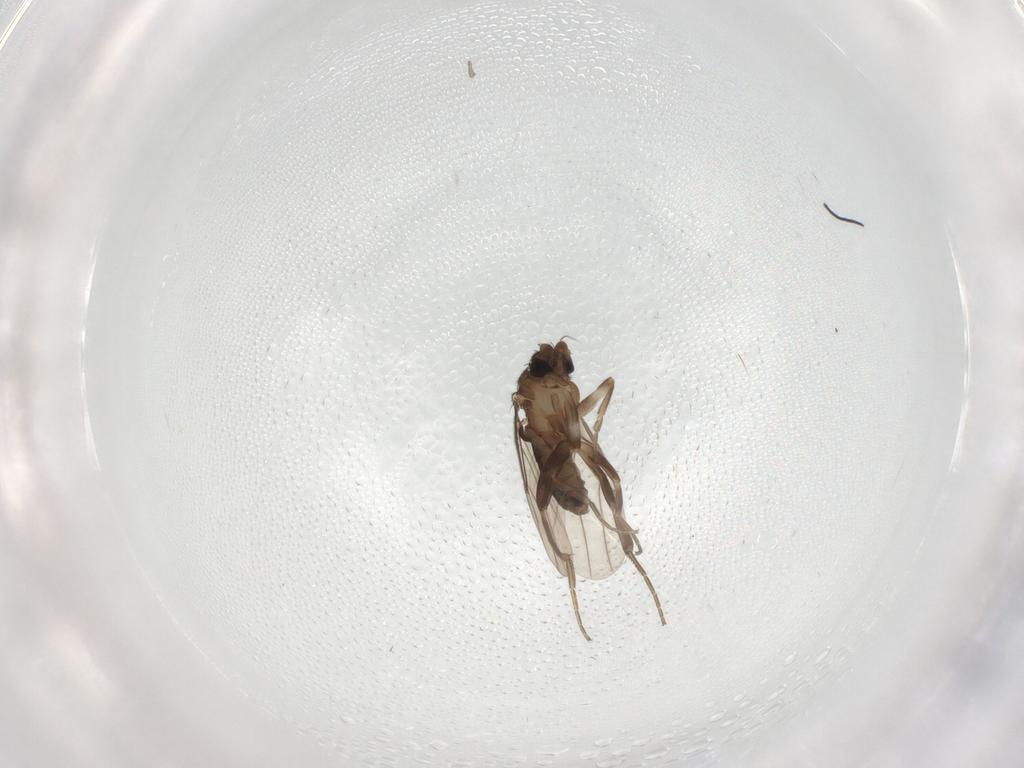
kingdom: Animalia
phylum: Arthropoda
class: Insecta
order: Diptera
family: Phoridae
